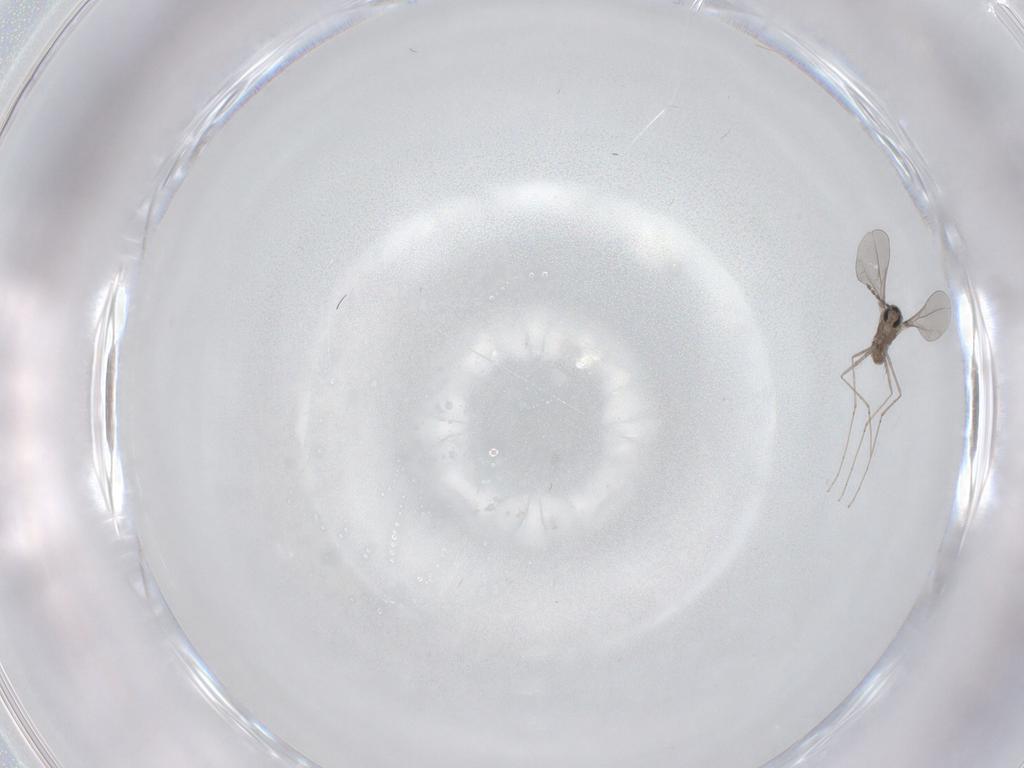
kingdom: Animalia
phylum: Arthropoda
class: Insecta
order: Diptera
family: Cecidomyiidae
